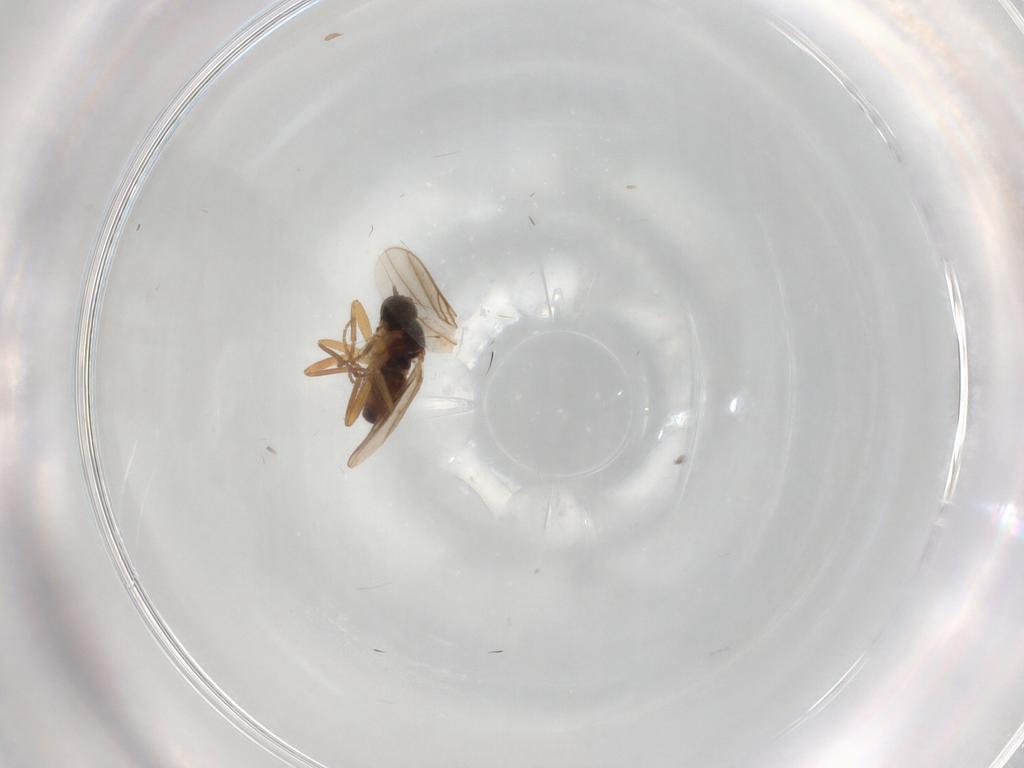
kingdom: Animalia
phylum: Arthropoda
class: Insecta
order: Diptera
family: Hybotidae
